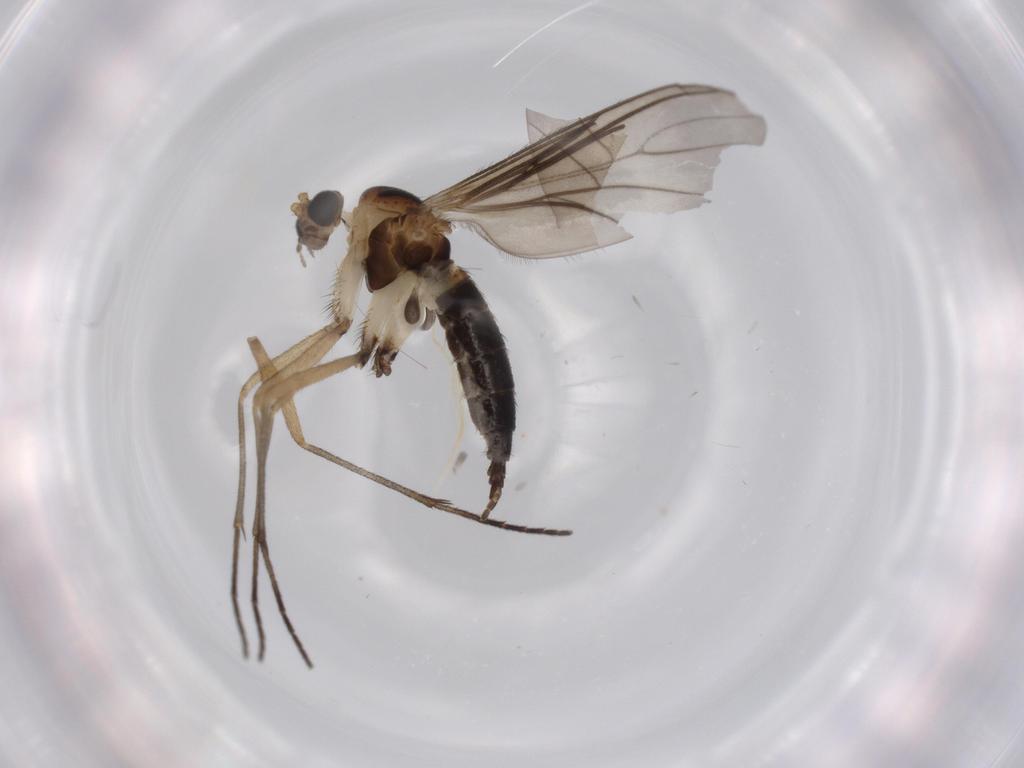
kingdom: Animalia
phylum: Arthropoda
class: Insecta
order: Diptera
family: Sciaridae
